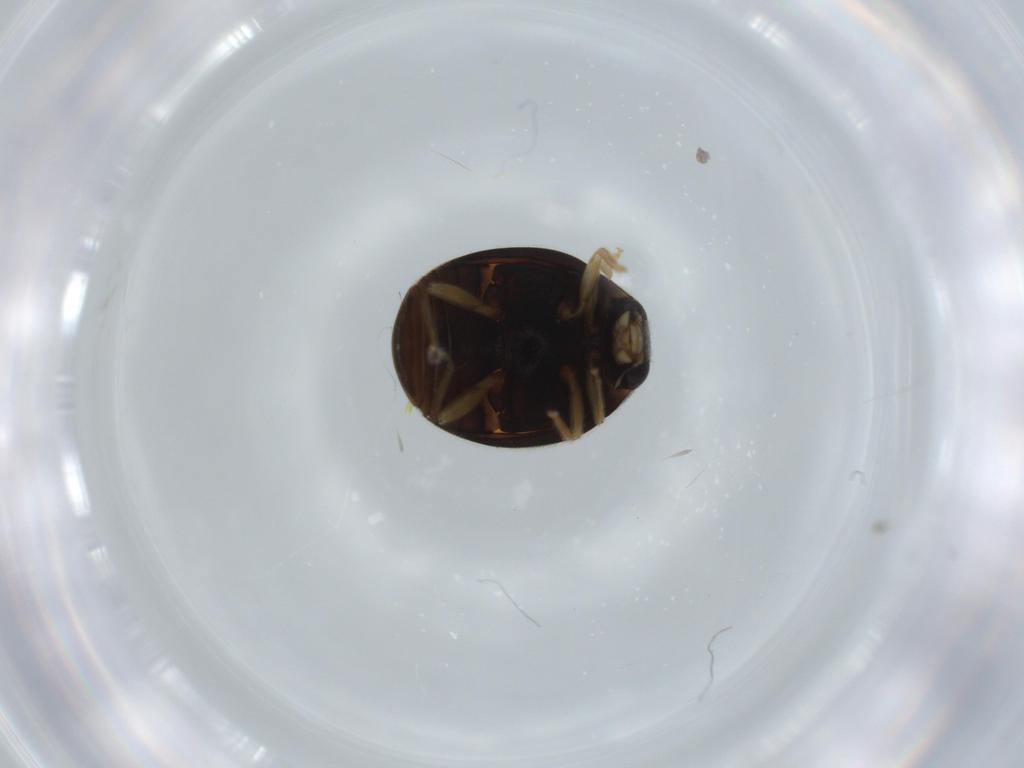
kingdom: Animalia
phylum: Arthropoda
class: Insecta
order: Coleoptera
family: Coccinellidae
